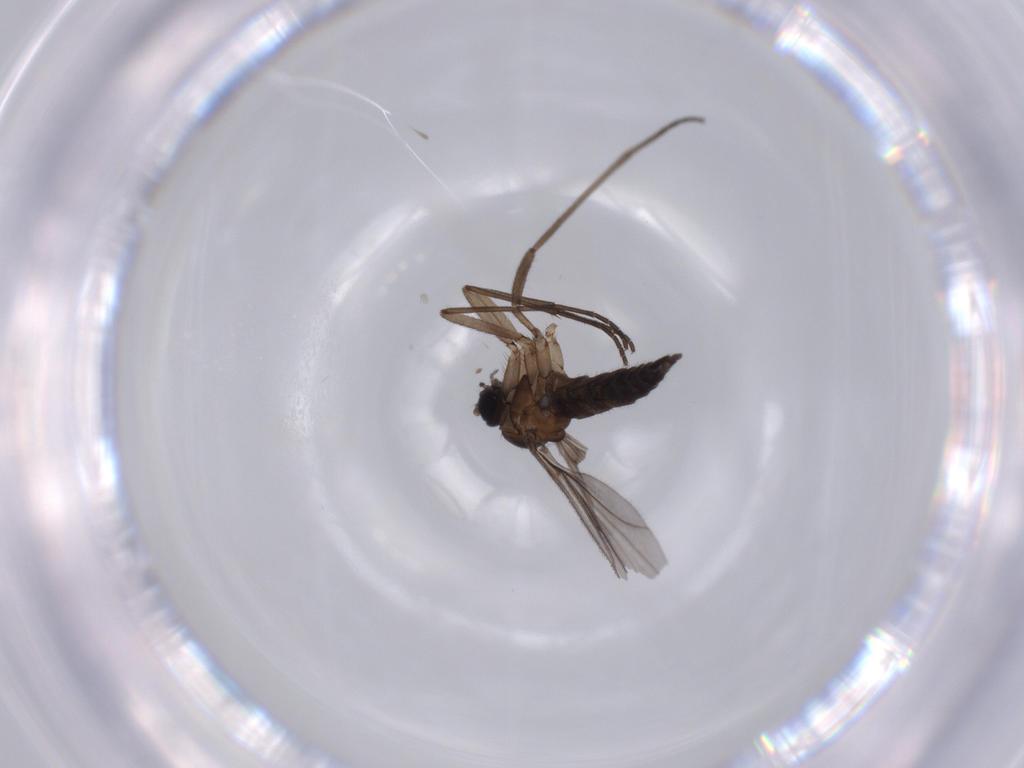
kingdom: Animalia
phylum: Arthropoda
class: Insecta
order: Diptera
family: Sciaridae
